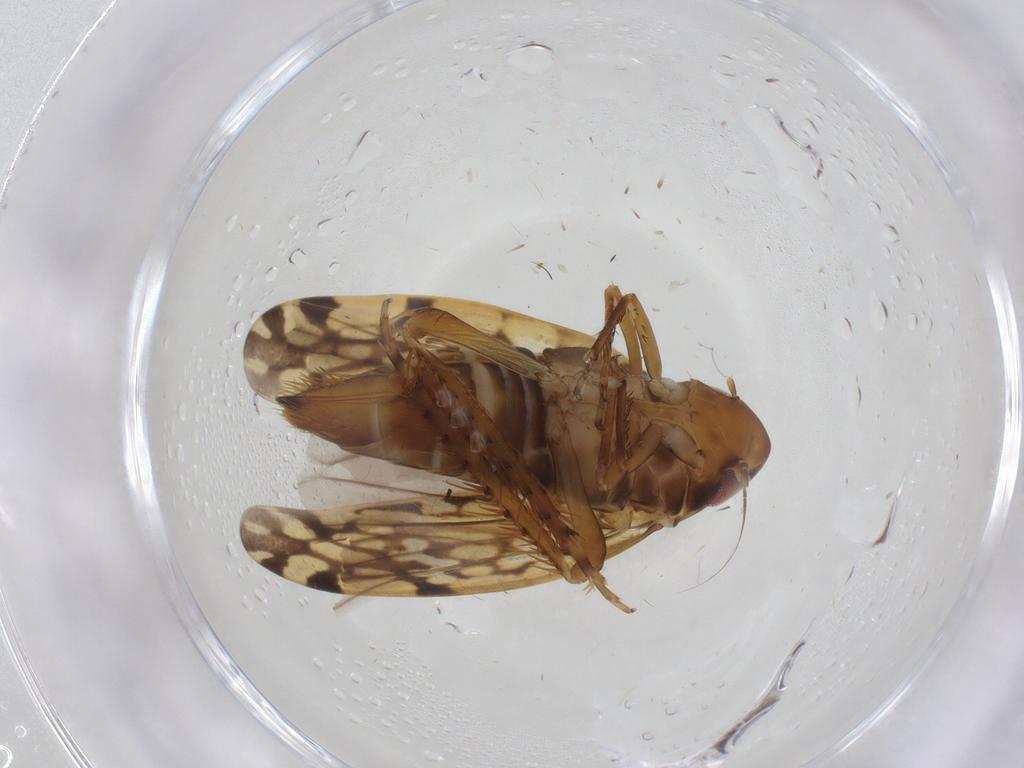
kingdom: Animalia
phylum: Arthropoda
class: Insecta
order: Hemiptera
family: Cicadellidae
